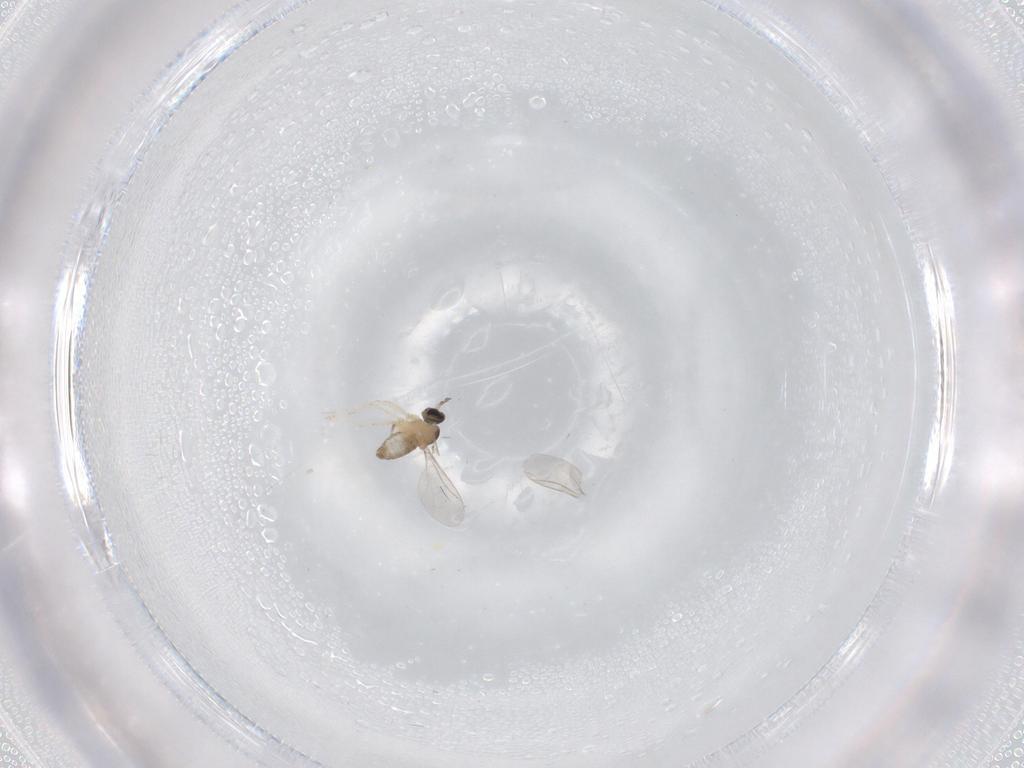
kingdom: Animalia
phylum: Arthropoda
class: Insecta
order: Diptera
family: Cecidomyiidae
